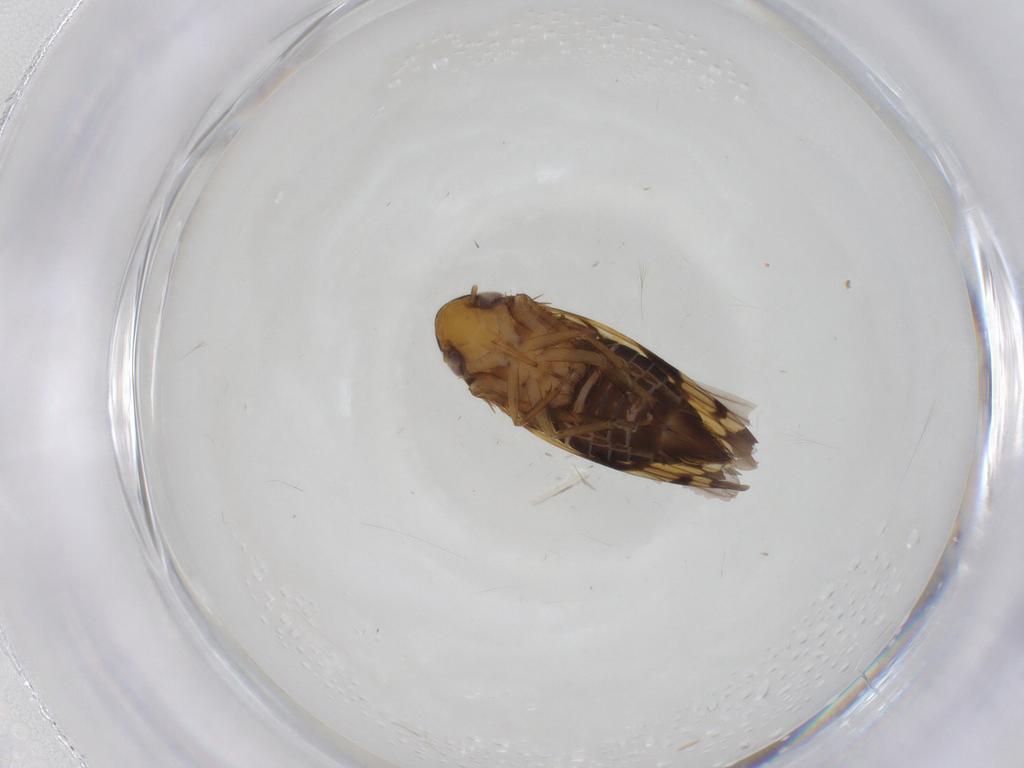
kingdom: Animalia
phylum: Arthropoda
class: Insecta
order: Hemiptera
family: Cicadellidae
